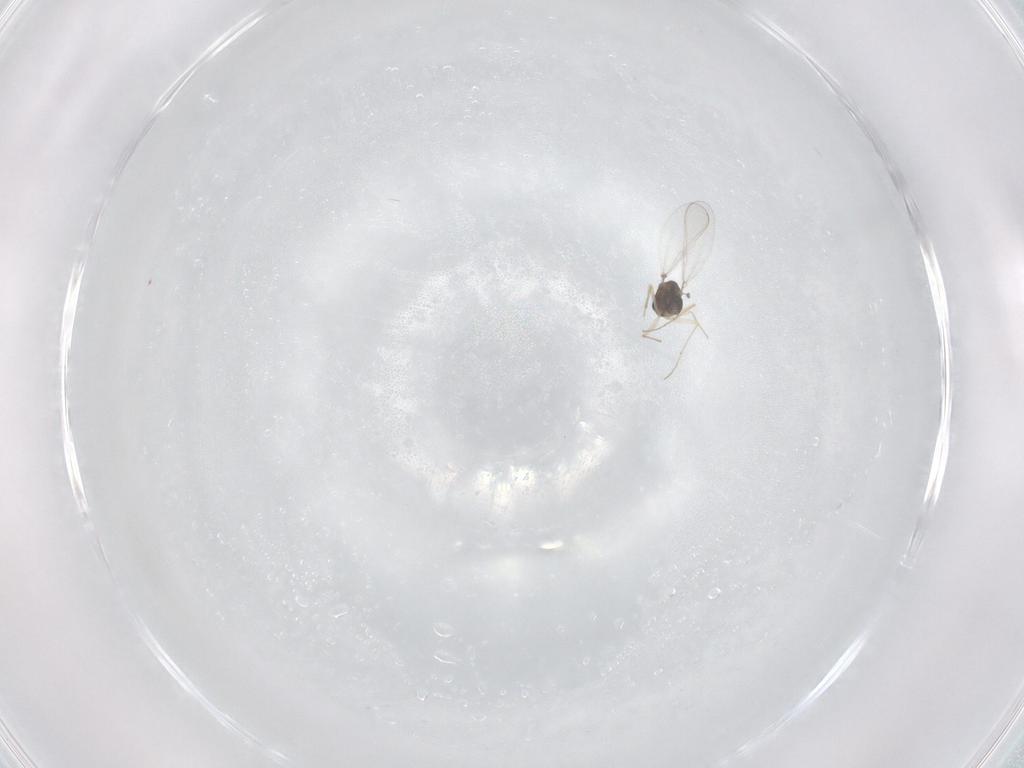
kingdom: Animalia
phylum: Arthropoda
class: Insecta
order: Diptera
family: Chironomidae
